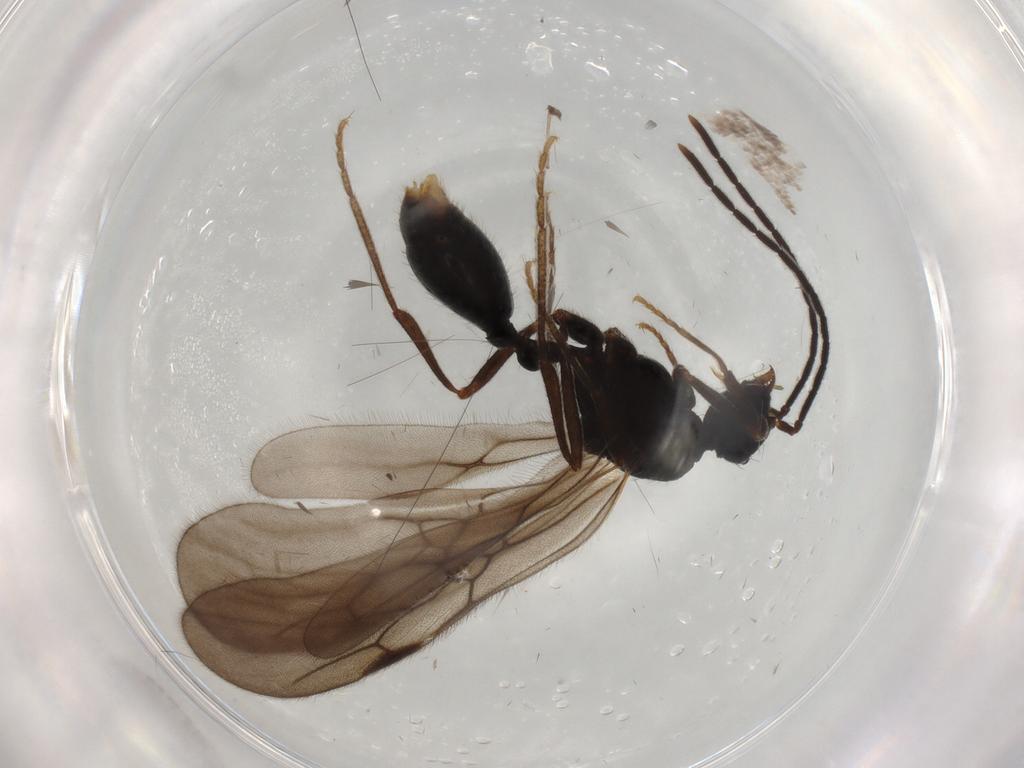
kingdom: Animalia
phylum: Arthropoda
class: Insecta
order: Hymenoptera
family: Formicidae
